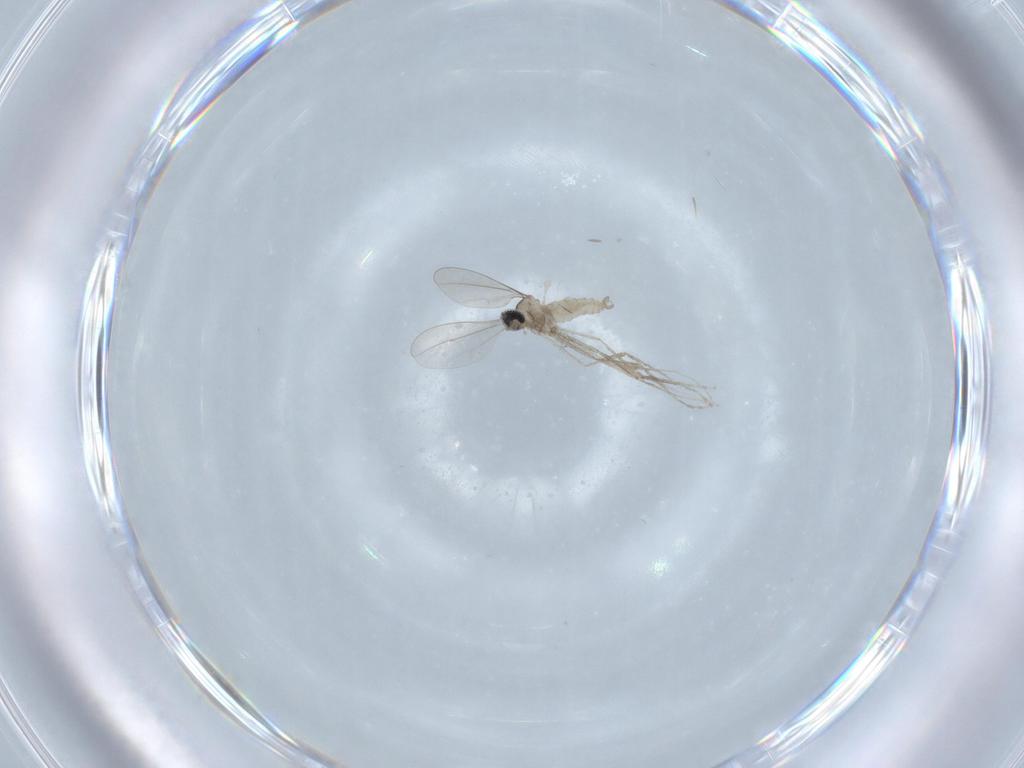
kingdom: Animalia
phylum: Arthropoda
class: Insecta
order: Diptera
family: Cecidomyiidae
